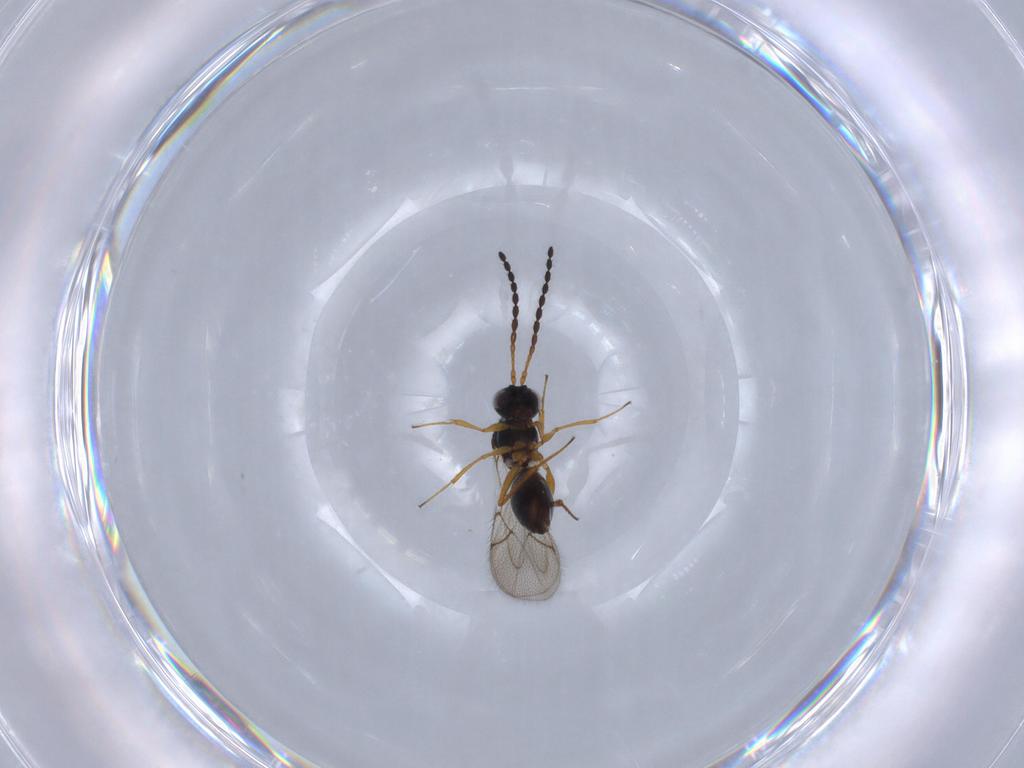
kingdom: Animalia
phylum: Arthropoda
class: Insecta
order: Hymenoptera
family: Figitidae
